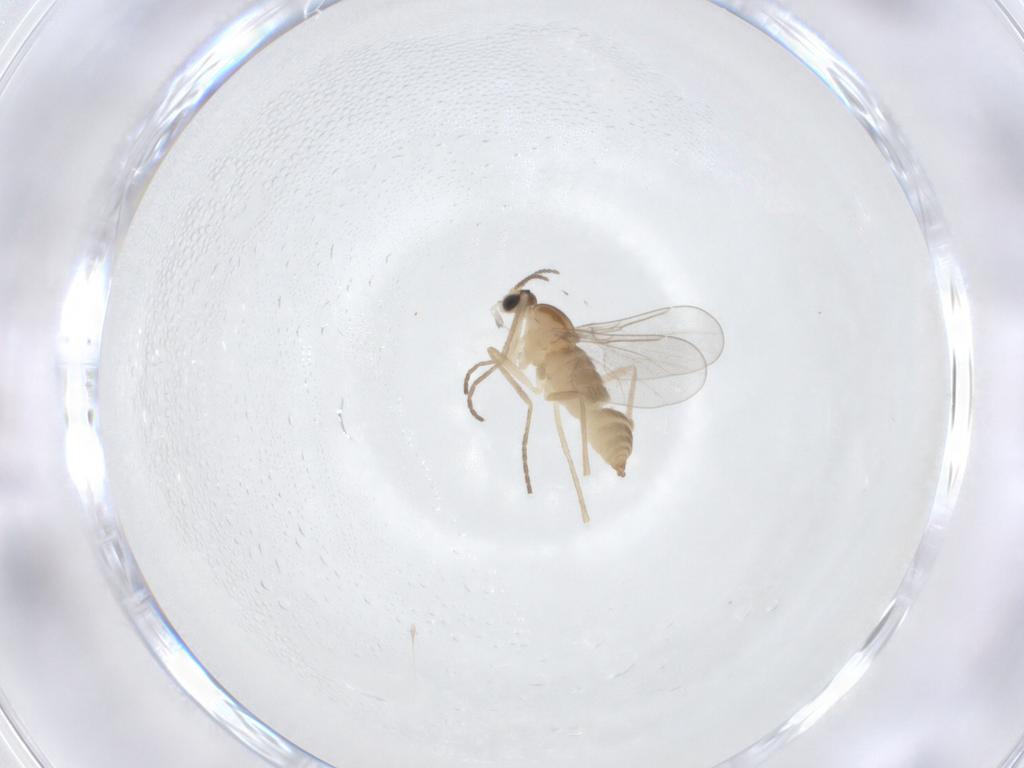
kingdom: Animalia
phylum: Arthropoda
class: Insecta
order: Diptera
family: Cecidomyiidae
